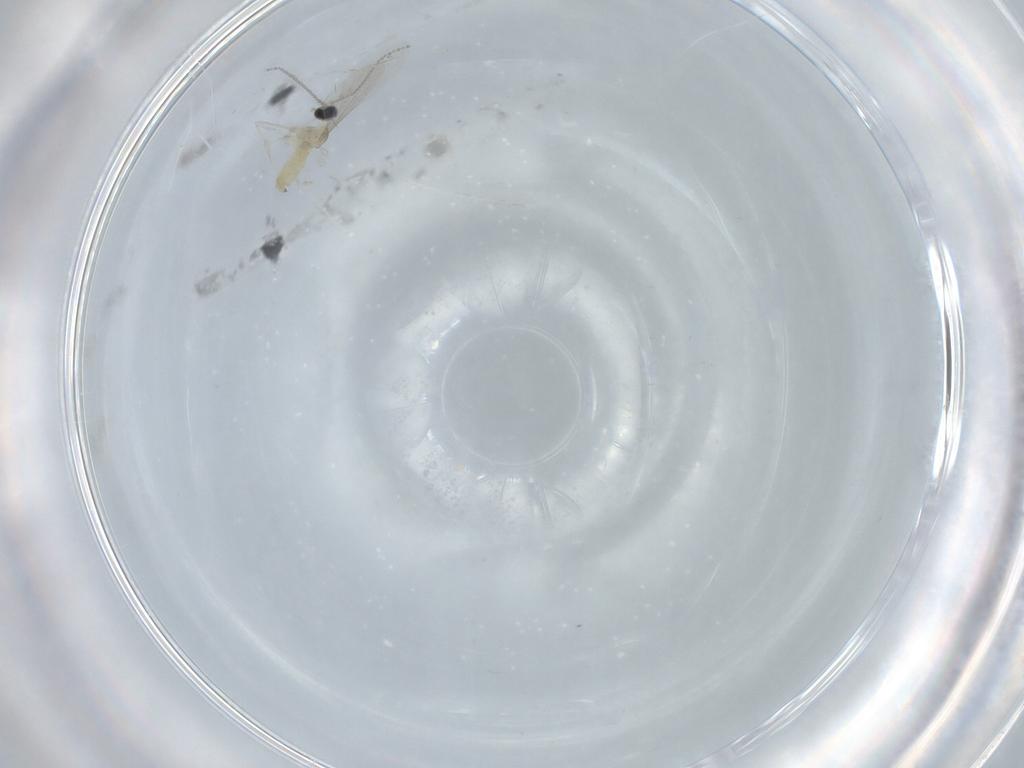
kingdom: Animalia
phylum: Arthropoda
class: Insecta
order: Diptera
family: Cecidomyiidae
